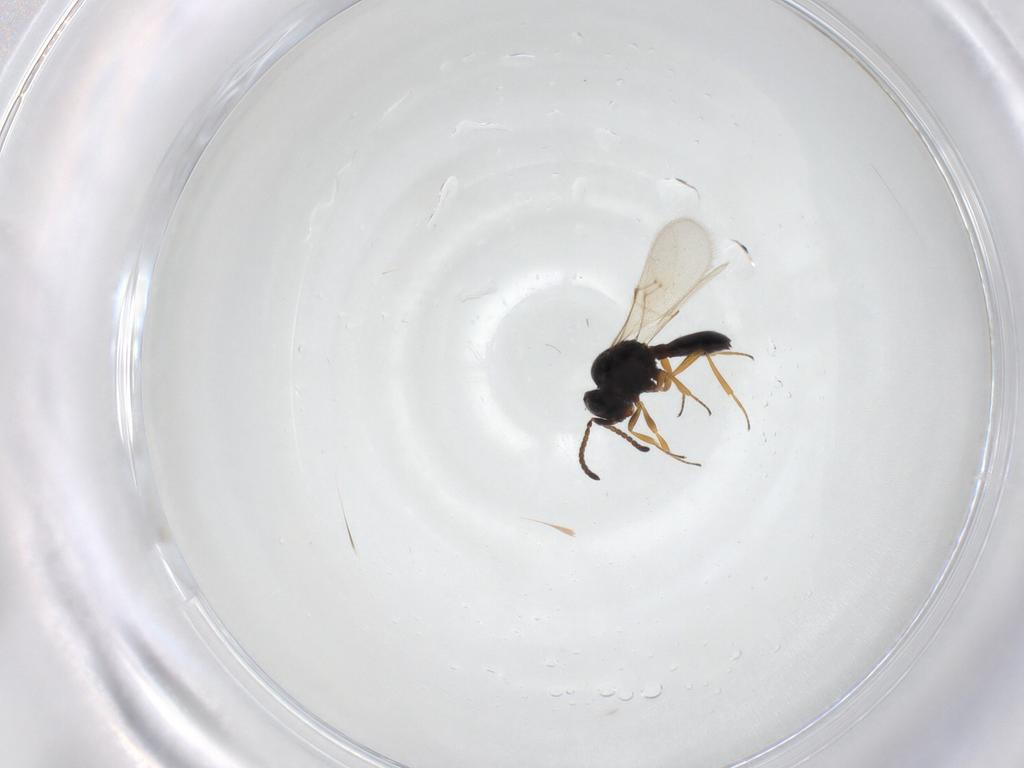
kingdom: Animalia
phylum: Arthropoda
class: Insecta
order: Hymenoptera
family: Scelionidae
